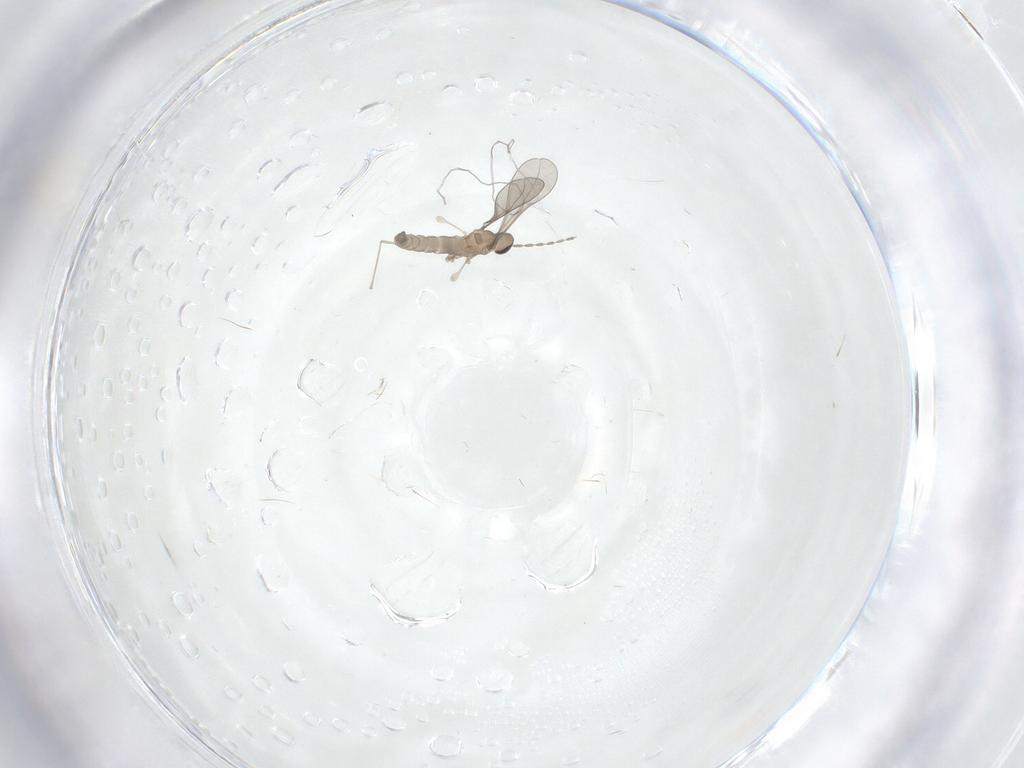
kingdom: Animalia
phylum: Arthropoda
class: Insecta
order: Diptera
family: Cecidomyiidae
